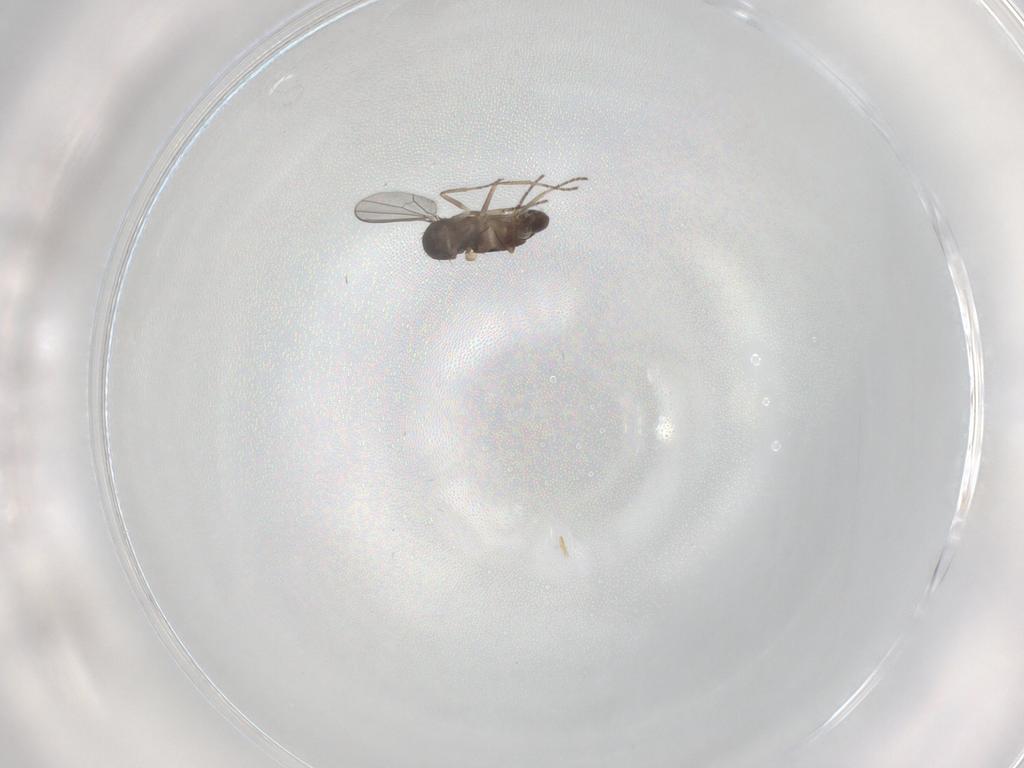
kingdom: Animalia
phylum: Arthropoda
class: Insecta
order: Diptera
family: Dolichopodidae
